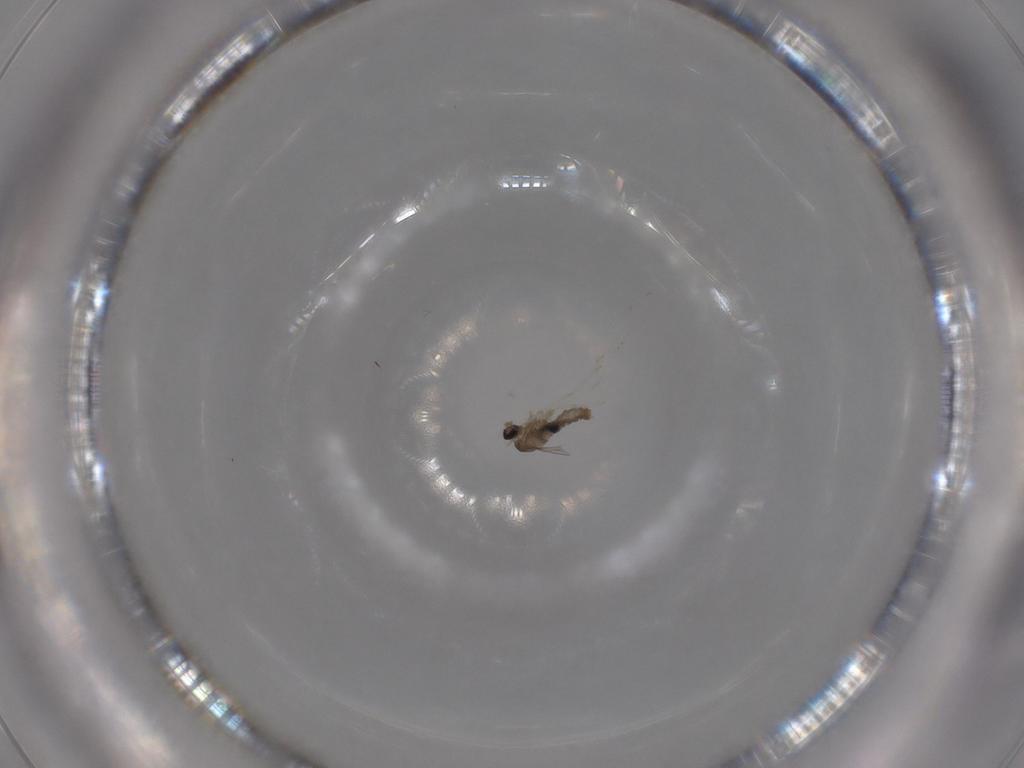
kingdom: Animalia
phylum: Arthropoda
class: Insecta
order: Diptera
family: Cecidomyiidae
